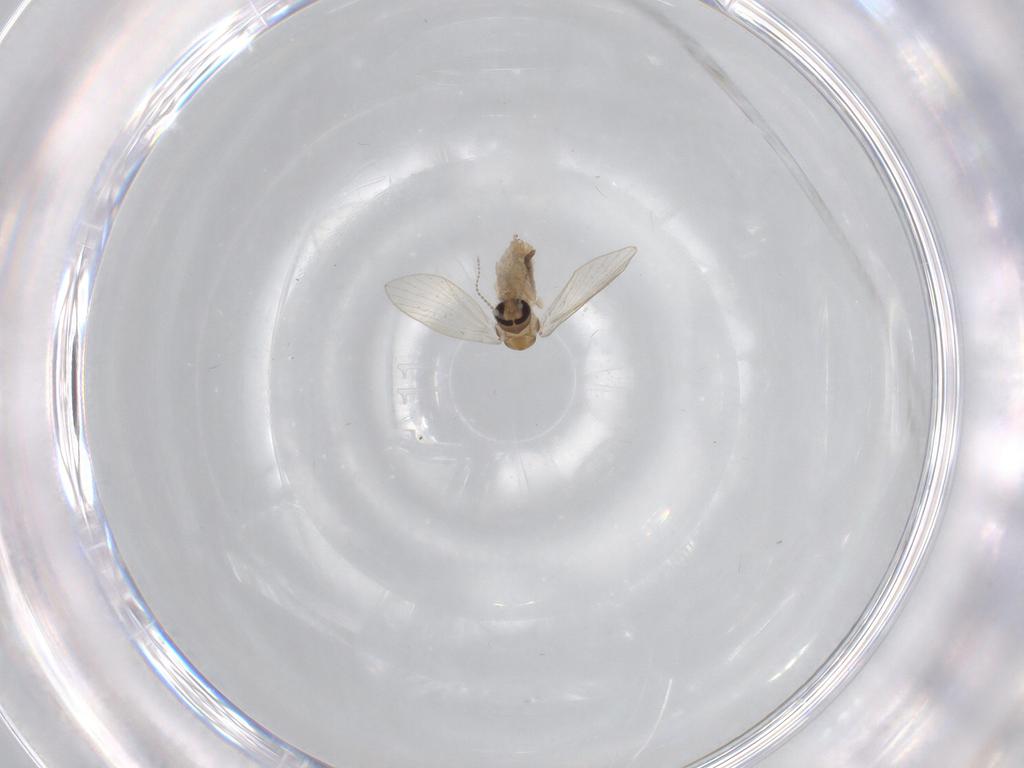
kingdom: Animalia
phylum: Arthropoda
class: Insecta
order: Diptera
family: Psychodidae
